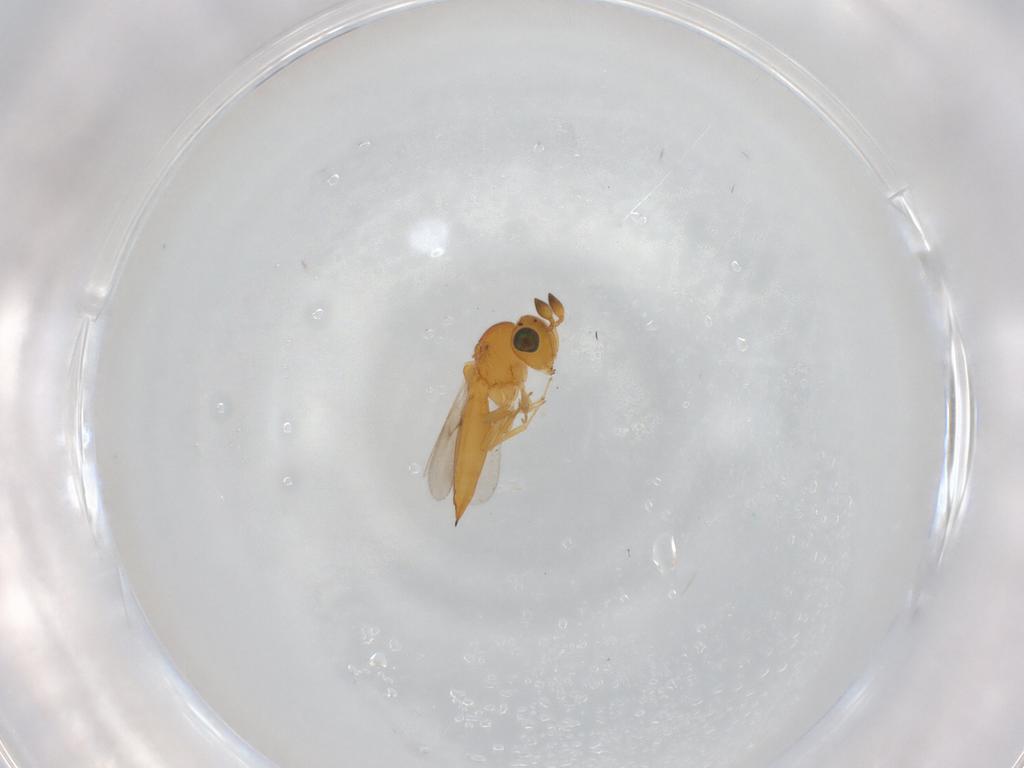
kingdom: Animalia
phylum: Arthropoda
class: Insecta
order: Hymenoptera
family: Scelionidae
